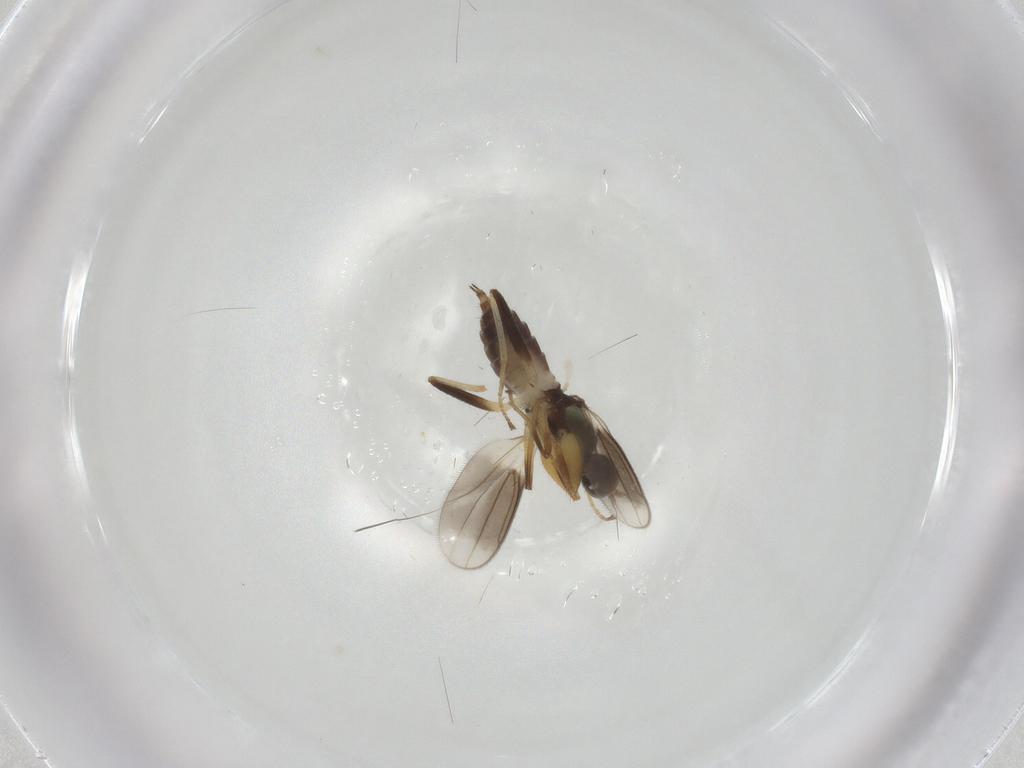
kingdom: Animalia
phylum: Arthropoda
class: Insecta
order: Diptera
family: Hybotidae
